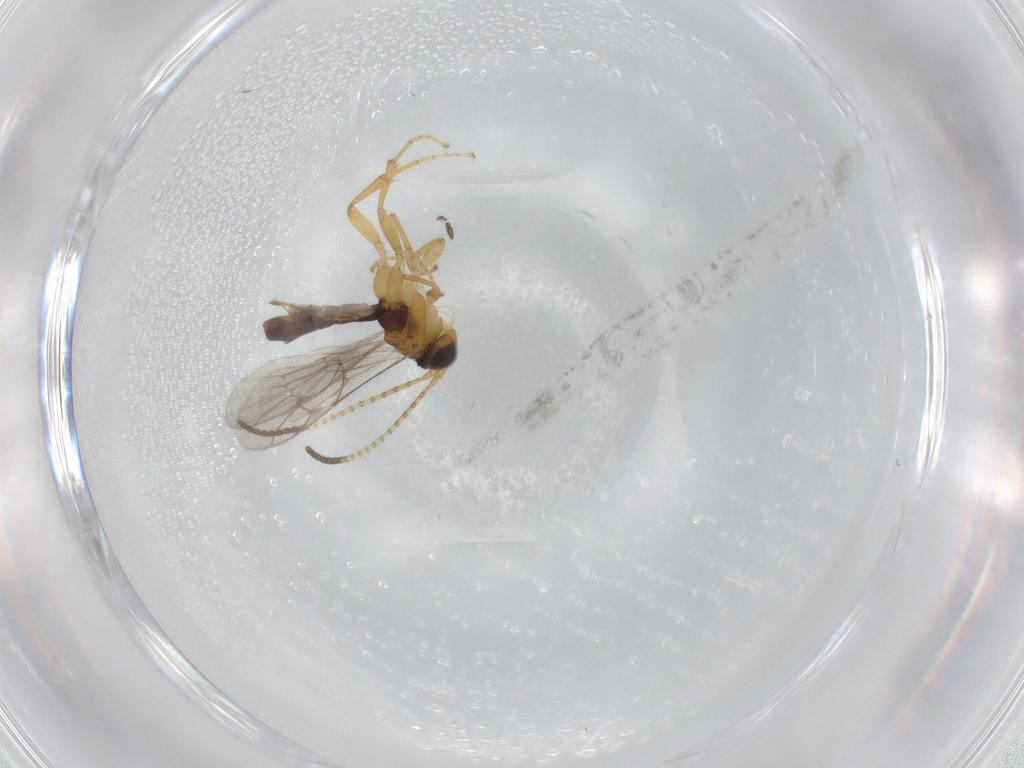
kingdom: Animalia
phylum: Arthropoda
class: Insecta
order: Hymenoptera
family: Ichneumonidae
